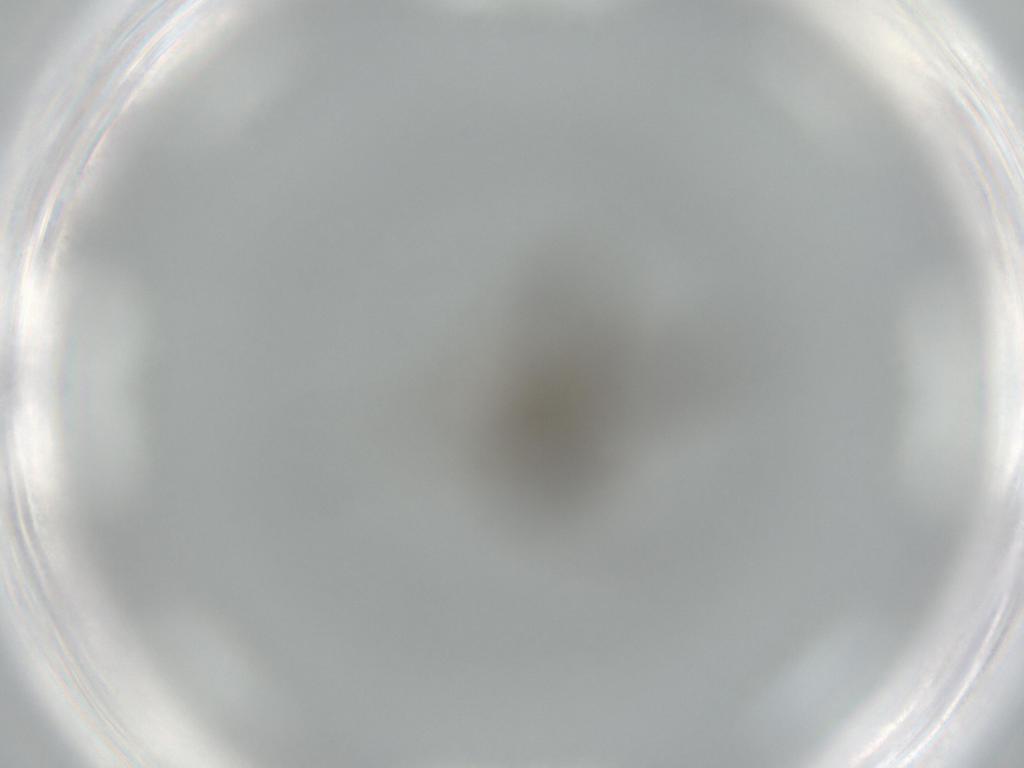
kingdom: Animalia
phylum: Arthropoda
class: Insecta
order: Diptera
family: Sciaridae
